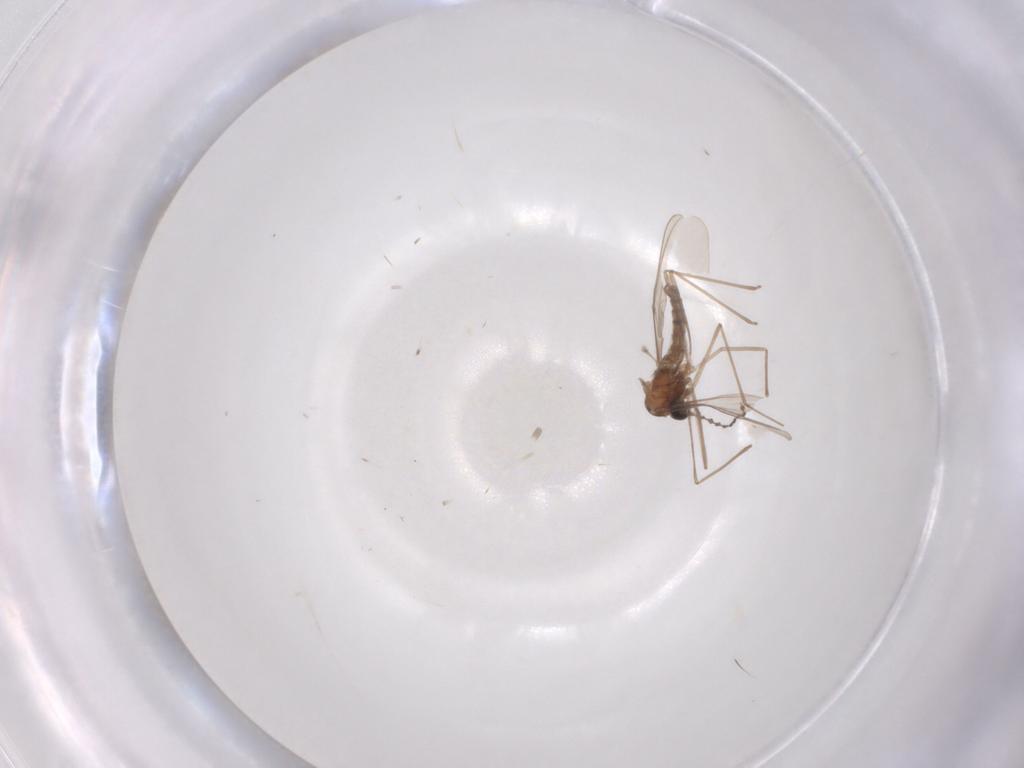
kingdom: Animalia
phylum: Arthropoda
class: Insecta
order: Diptera
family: Cecidomyiidae
